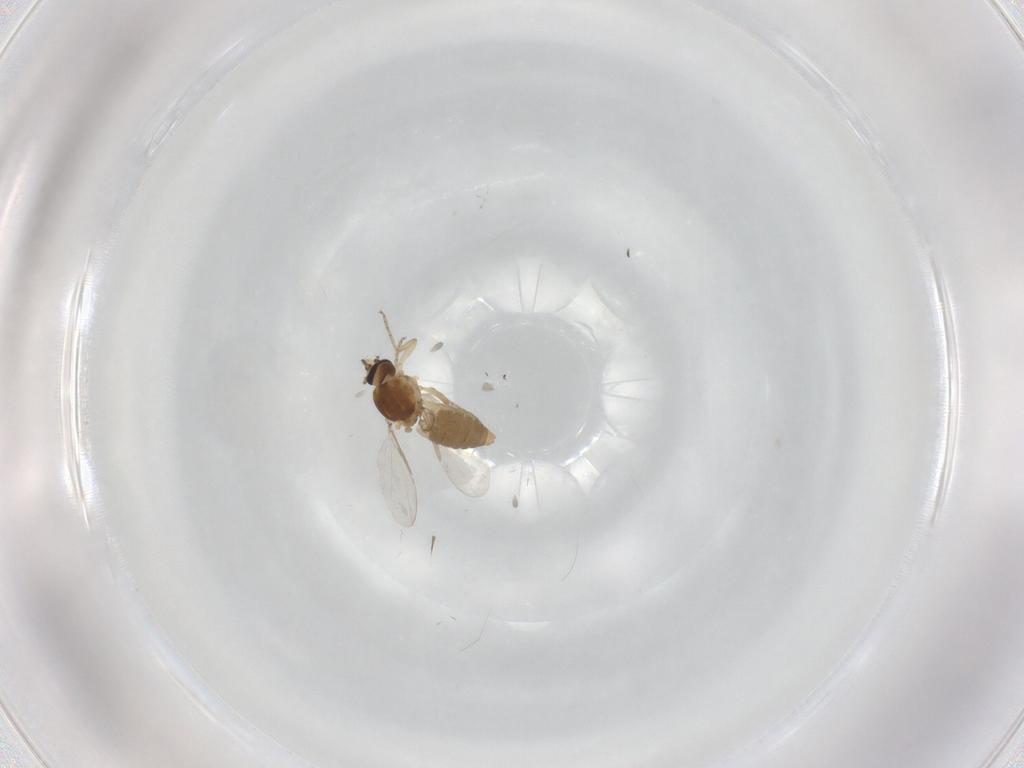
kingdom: Animalia
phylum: Arthropoda
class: Insecta
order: Diptera
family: Ceratopogonidae
